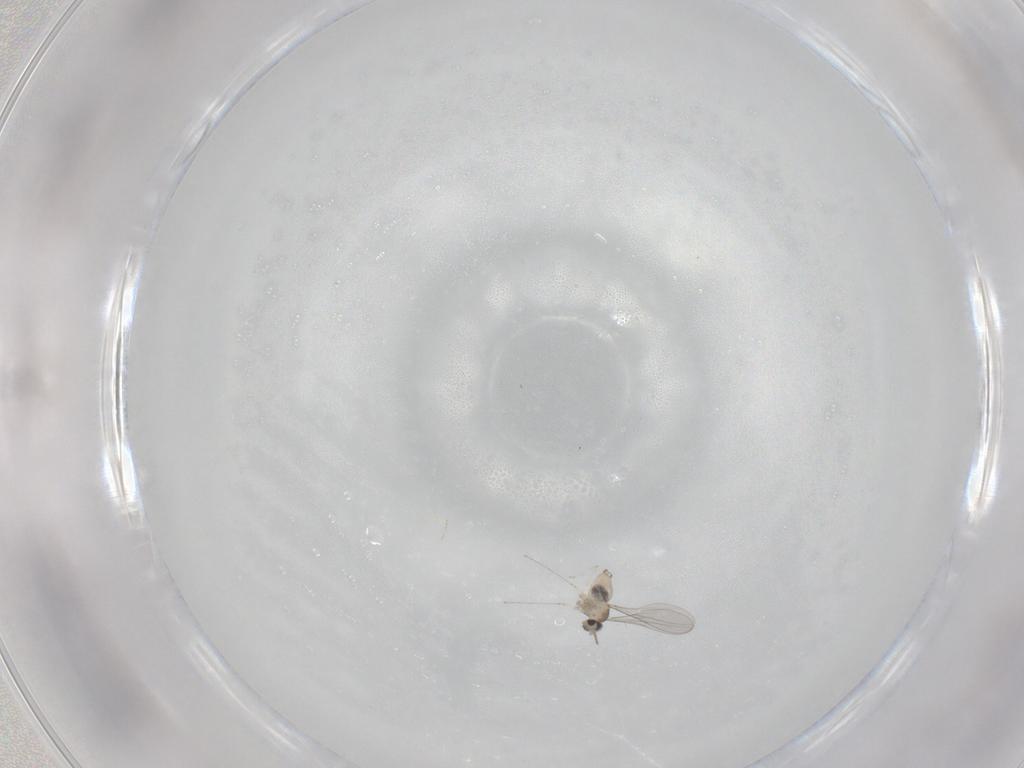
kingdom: Animalia
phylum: Arthropoda
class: Insecta
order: Diptera
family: Cecidomyiidae
